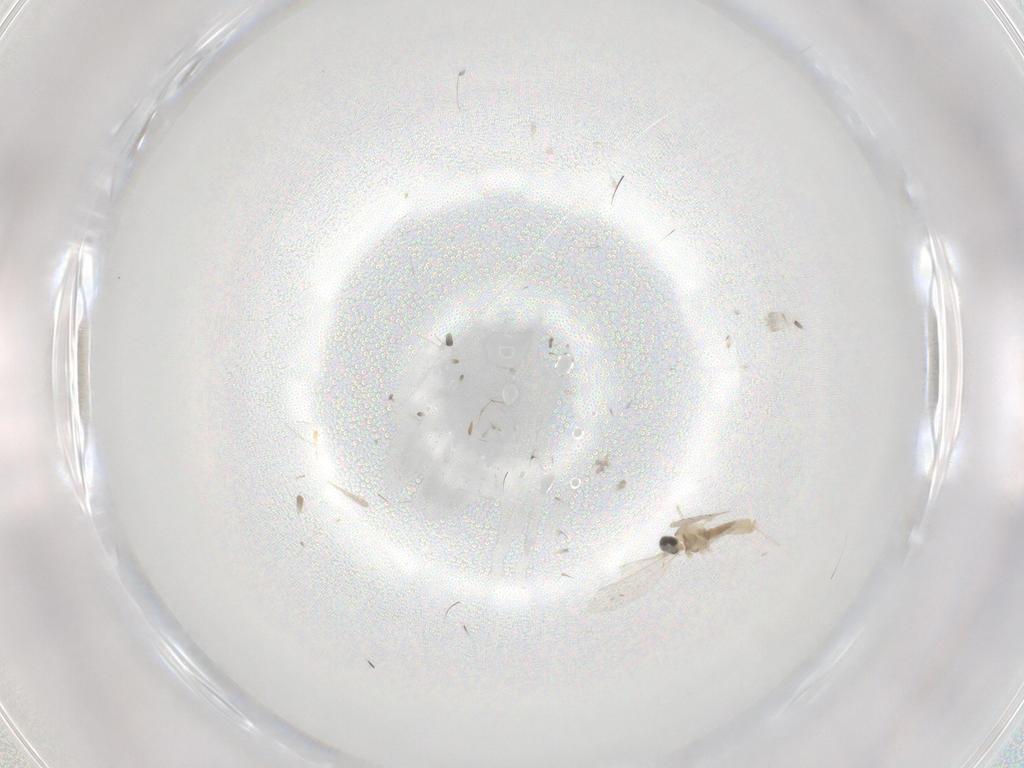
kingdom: Animalia
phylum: Arthropoda
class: Insecta
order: Diptera
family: Cecidomyiidae
